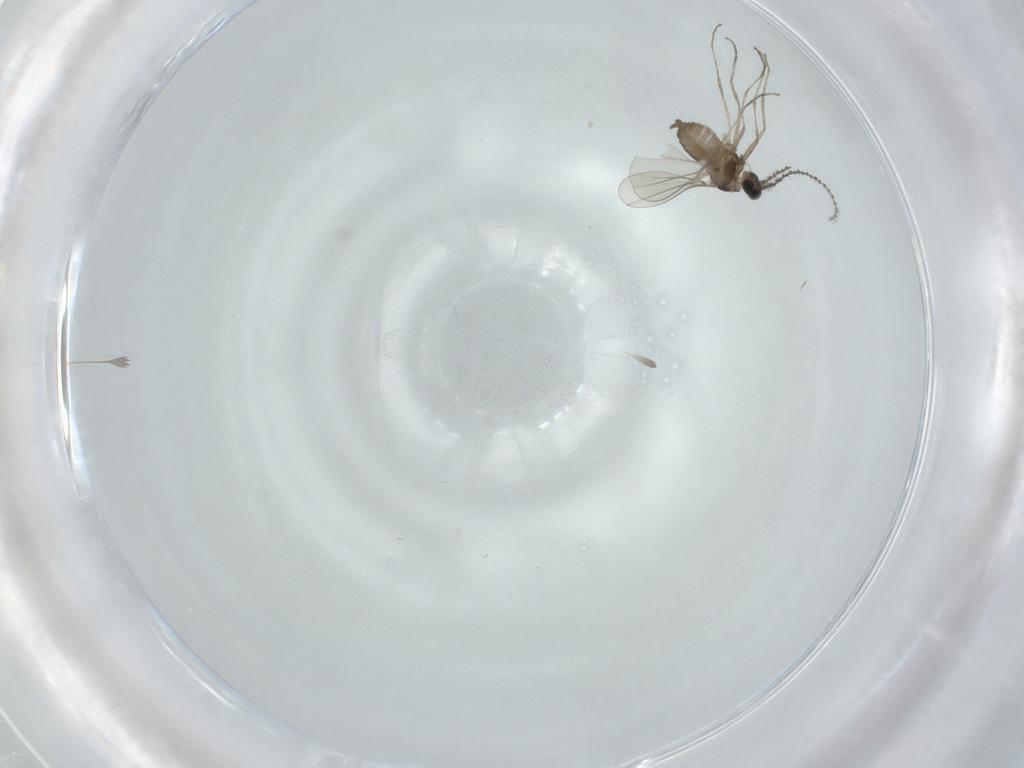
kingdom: Animalia
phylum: Arthropoda
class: Insecta
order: Diptera
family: Cecidomyiidae
